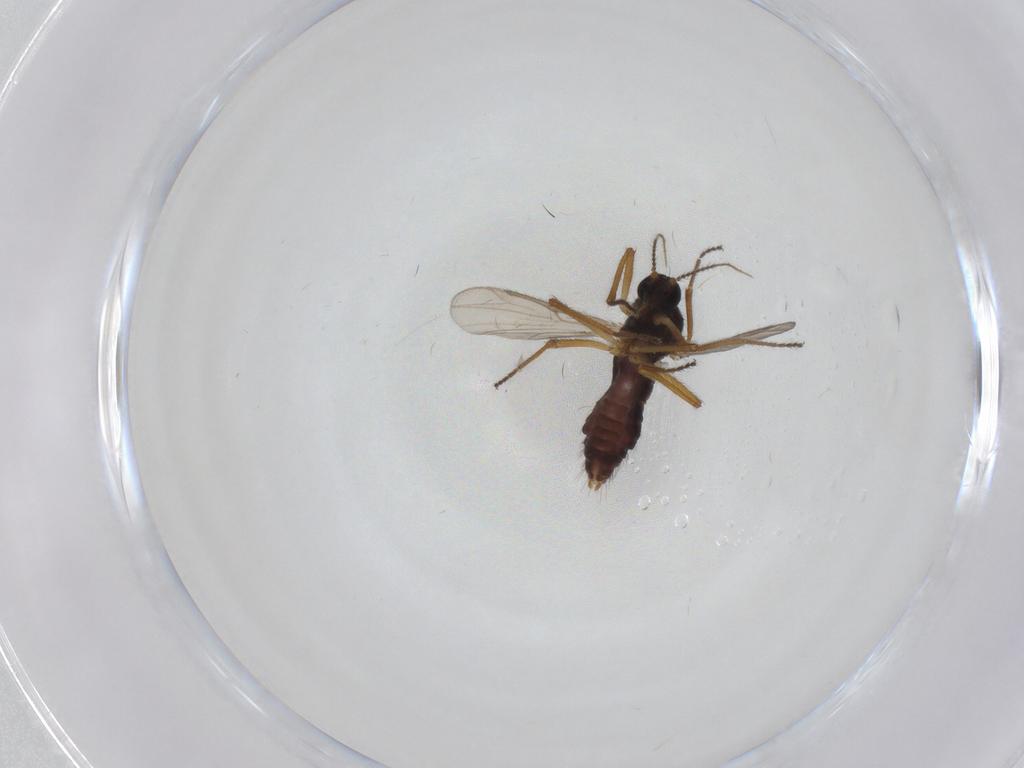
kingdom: Animalia
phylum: Arthropoda
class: Insecta
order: Diptera
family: Ceratopogonidae
